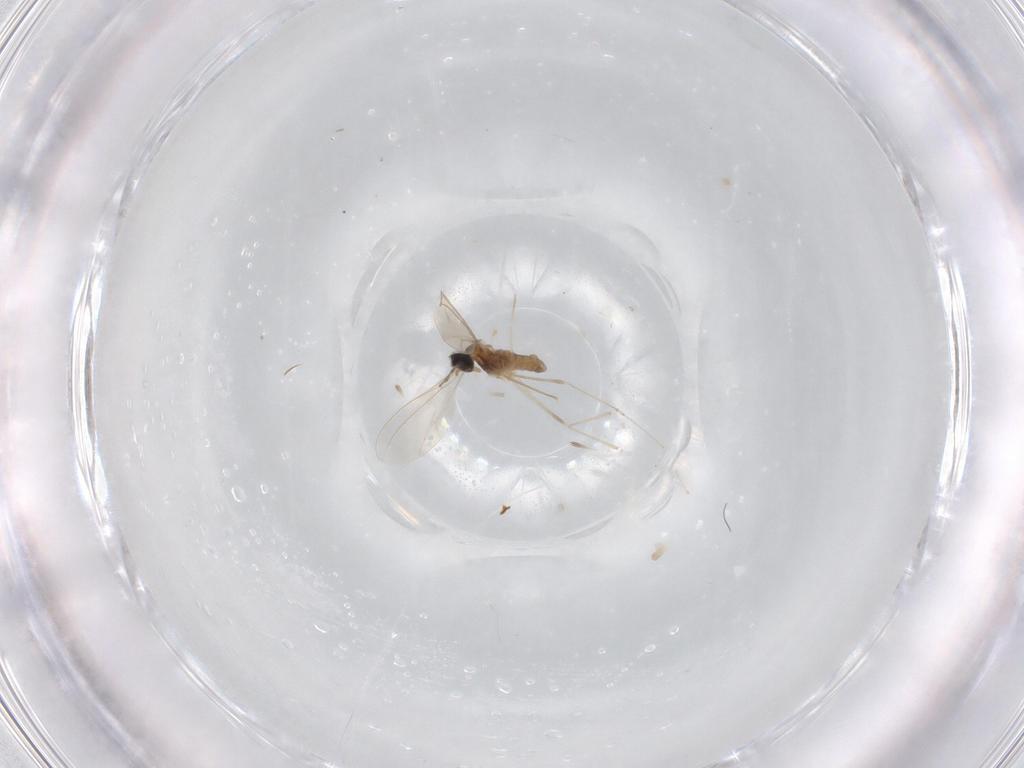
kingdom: Animalia
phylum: Arthropoda
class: Insecta
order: Diptera
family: Cecidomyiidae
